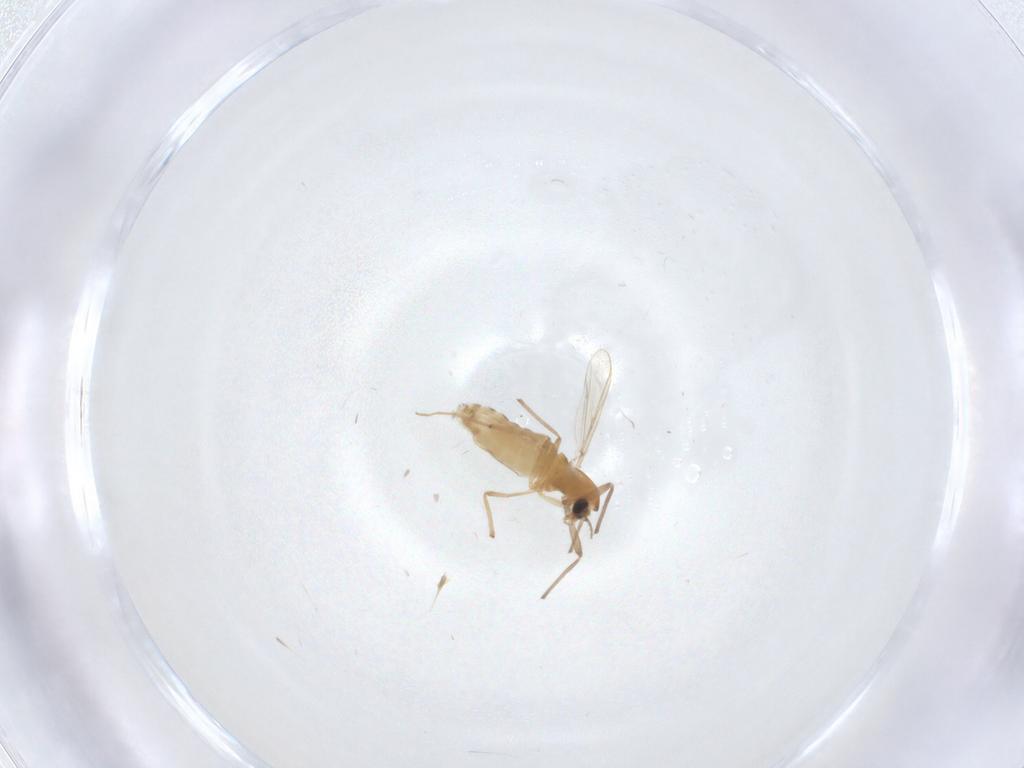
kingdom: Animalia
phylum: Arthropoda
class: Insecta
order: Diptera
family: Chironomidae
